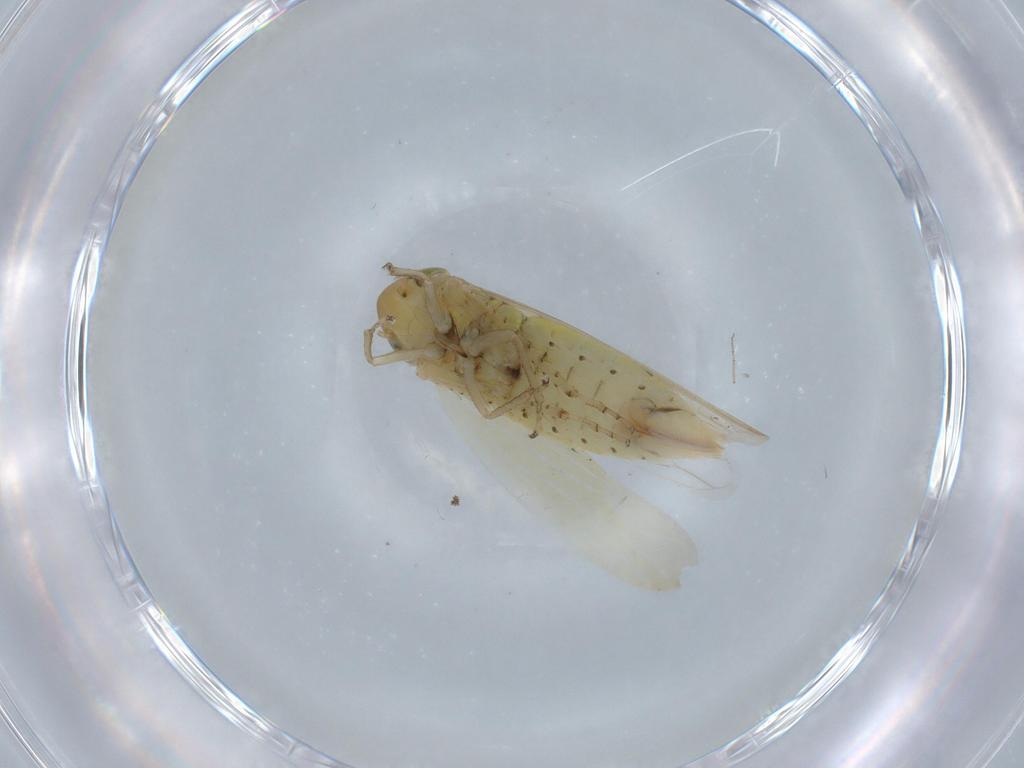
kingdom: Animalia
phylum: Arthropoda
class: Insecta
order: Hemiptera
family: Cicadellidae
